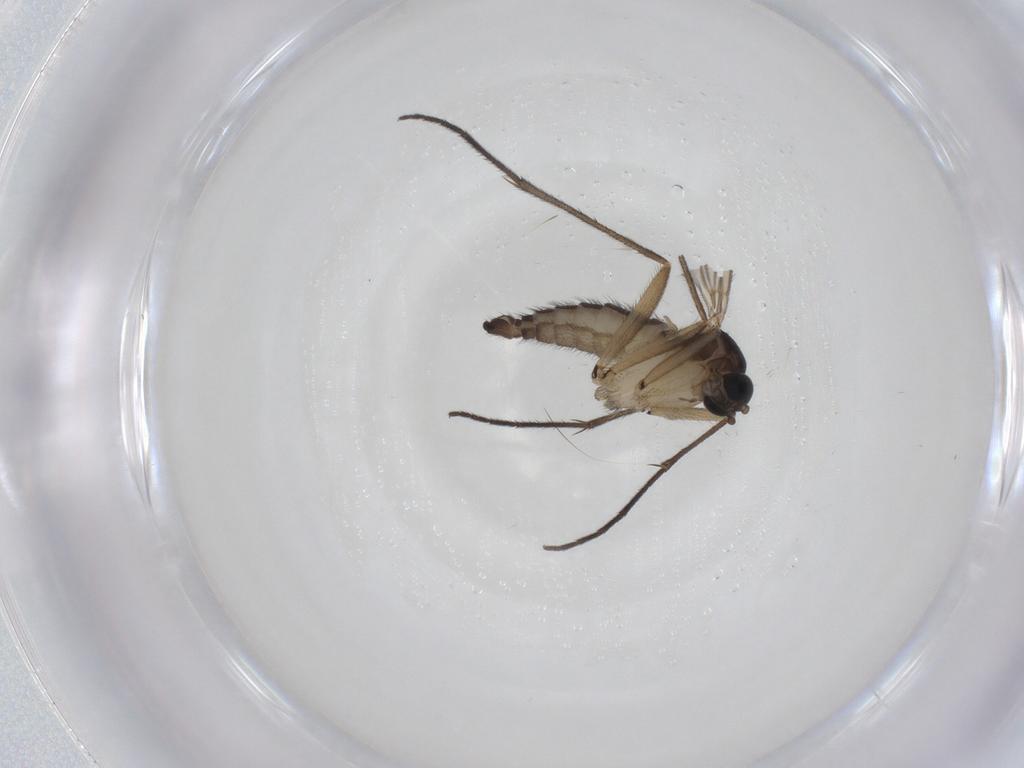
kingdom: Animalia
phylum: Arthropoda
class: Insecta
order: Diptera
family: Sciaridae
